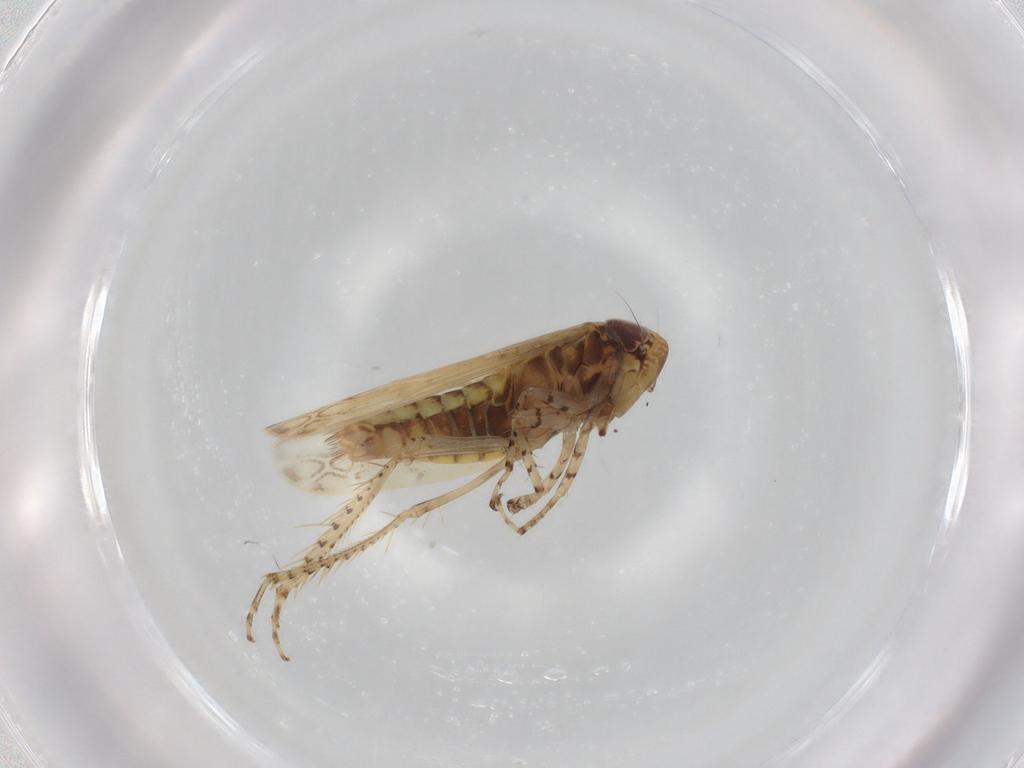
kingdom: Animalia
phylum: Arthropoda
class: Insecta
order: Hemiptera
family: Cicadellidae
